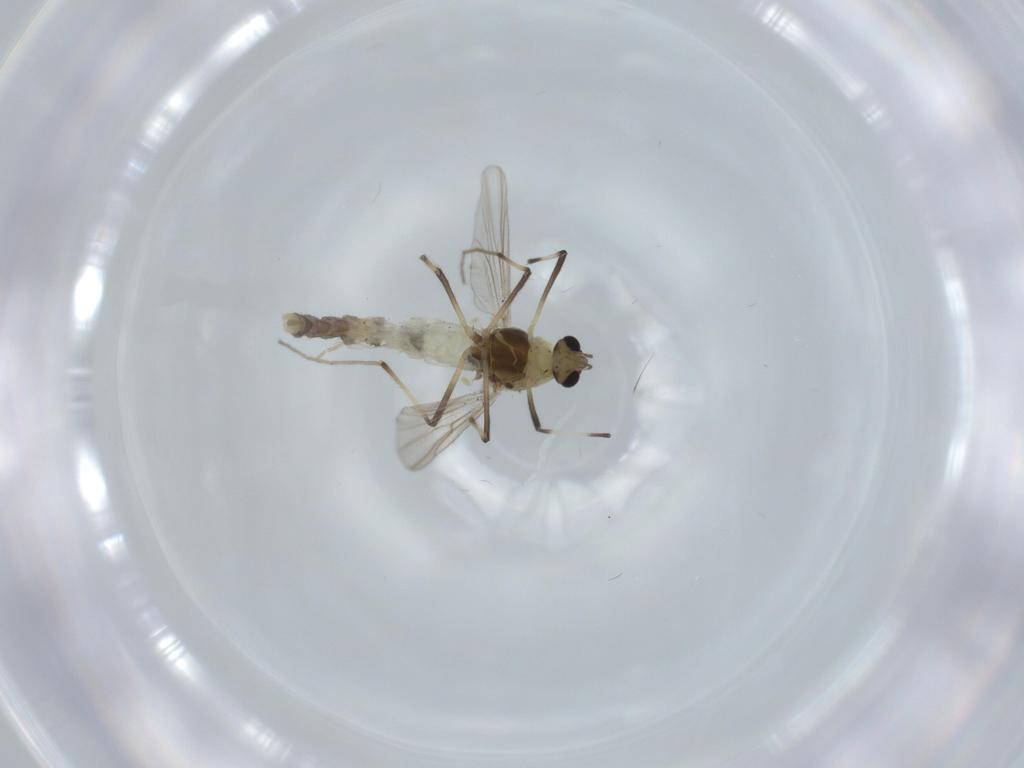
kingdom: Animalia
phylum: Arthropoda
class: Insecta
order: Diptera
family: Chironomidae
